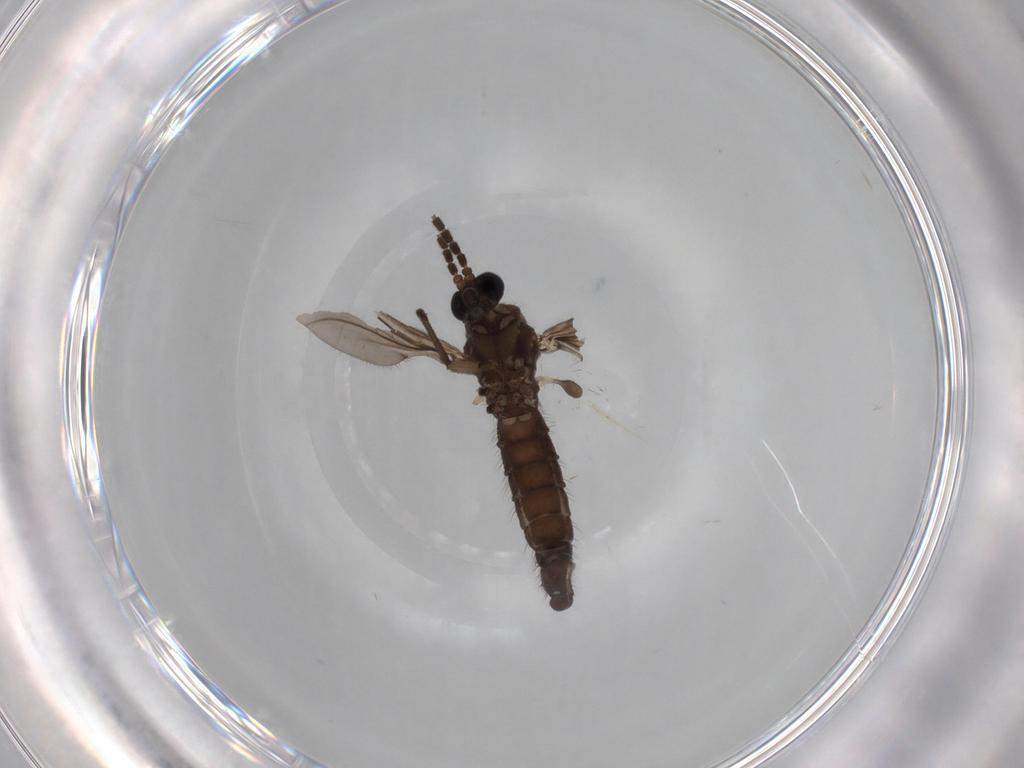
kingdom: Animalia
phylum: Arthropoda
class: Insecta
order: Diptera
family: Sciaridae
